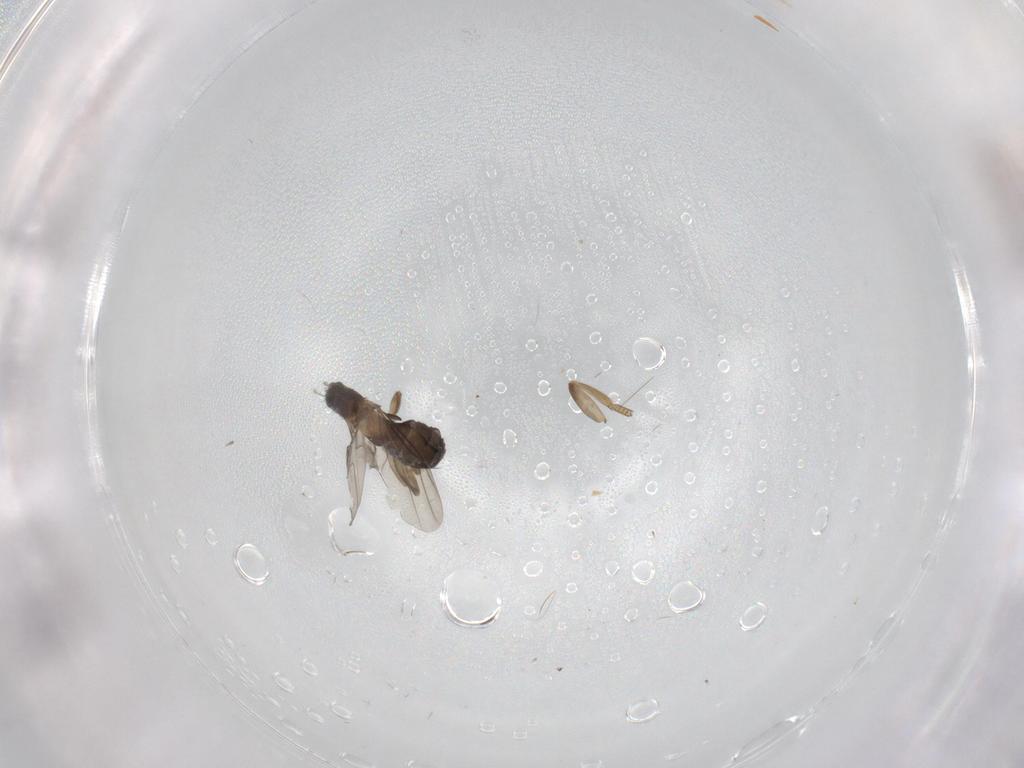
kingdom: Animalia
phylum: Arthropoda
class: Insecta
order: Diptera
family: Phoridae
